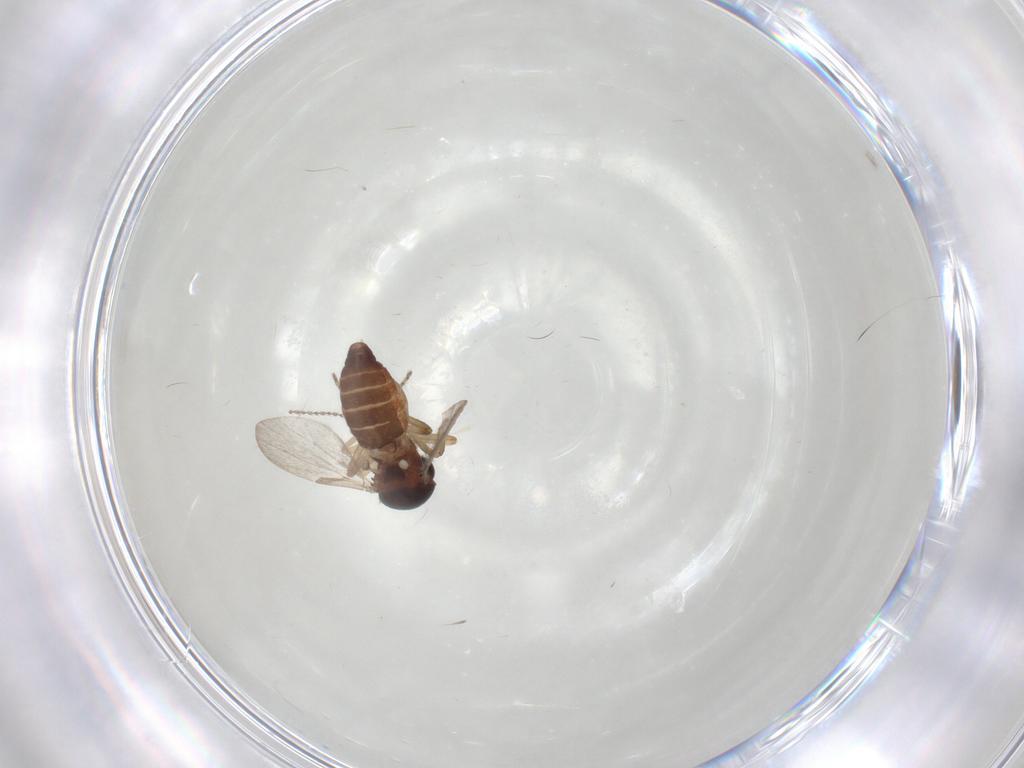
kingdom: Animalia
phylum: Arthropoda
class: Insecta
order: Diptera
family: Ceratopogonidae
